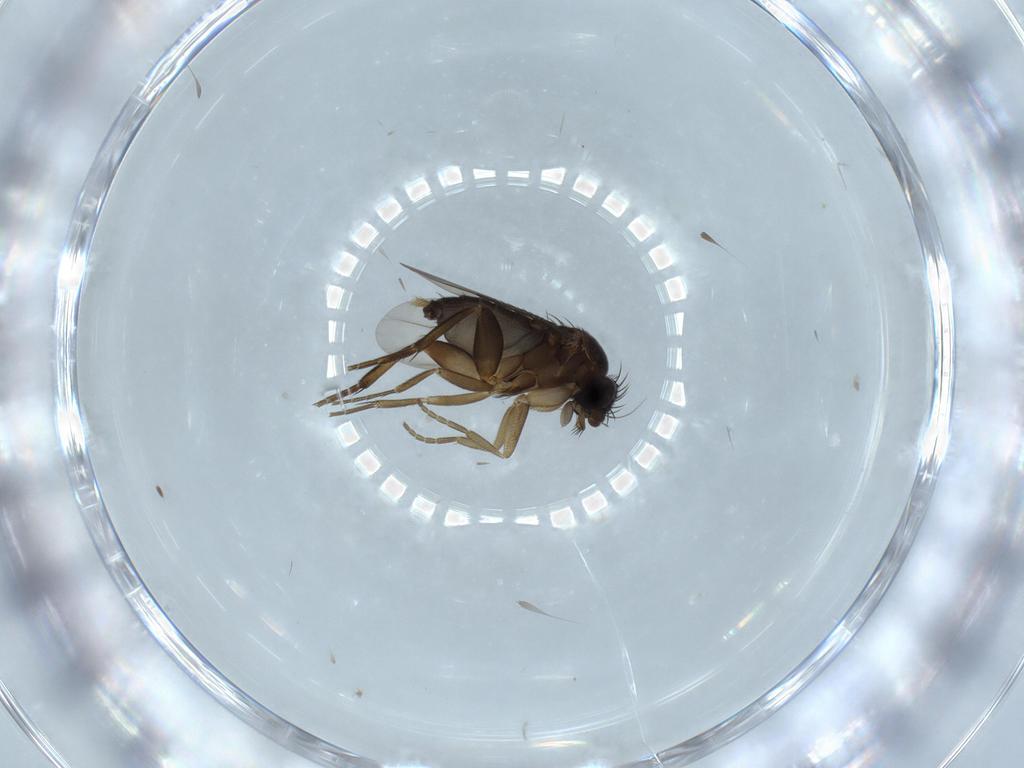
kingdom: Animalia
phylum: Arthropoda
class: Insecta
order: Diptera
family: Phoridae
